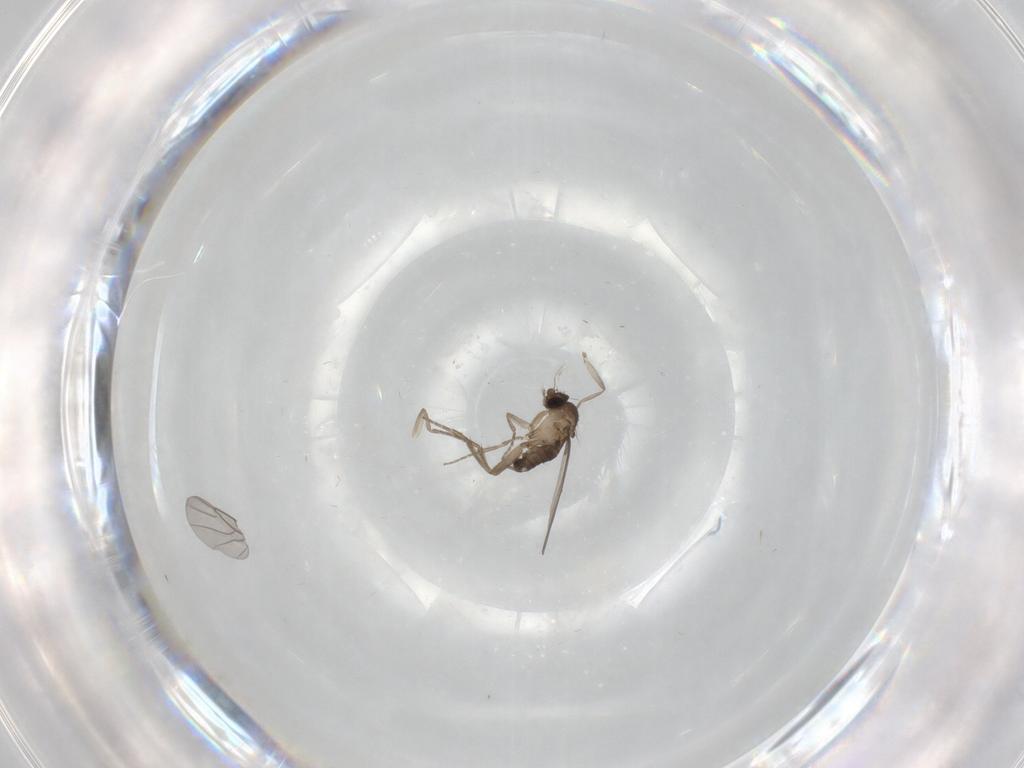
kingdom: Animalia
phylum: Arthropoda
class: Insecta
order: Diptera
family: Phoridae
